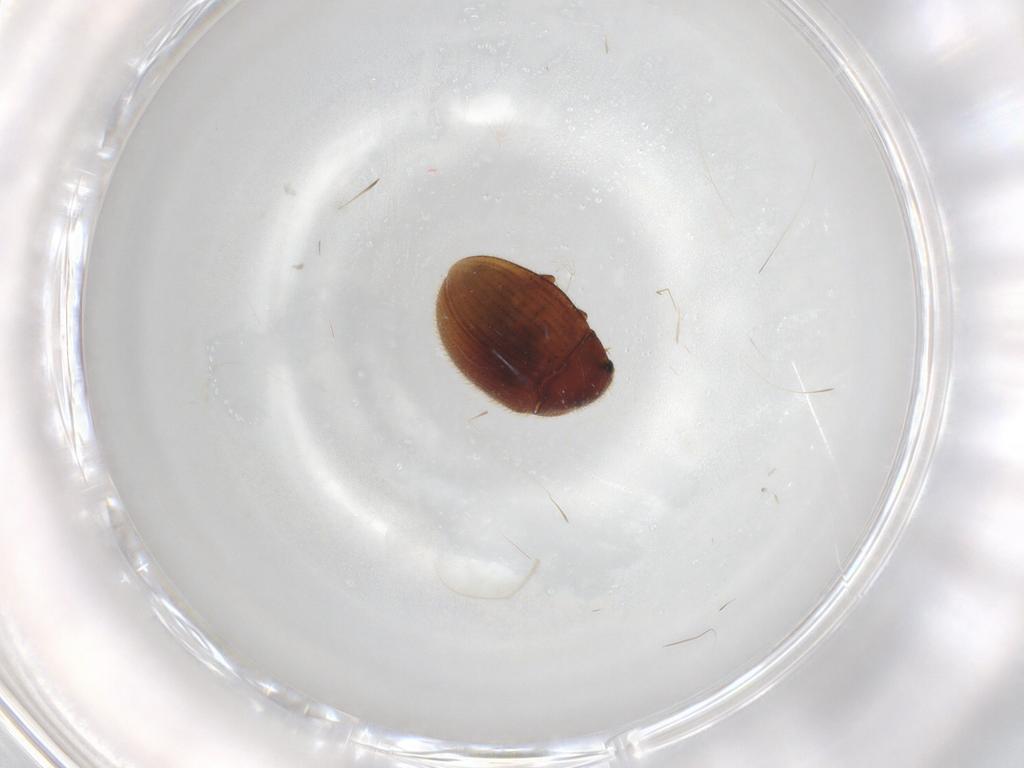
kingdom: Animalia
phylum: Arthropoda
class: Insecta
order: Coleoptera
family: Euxestidae
